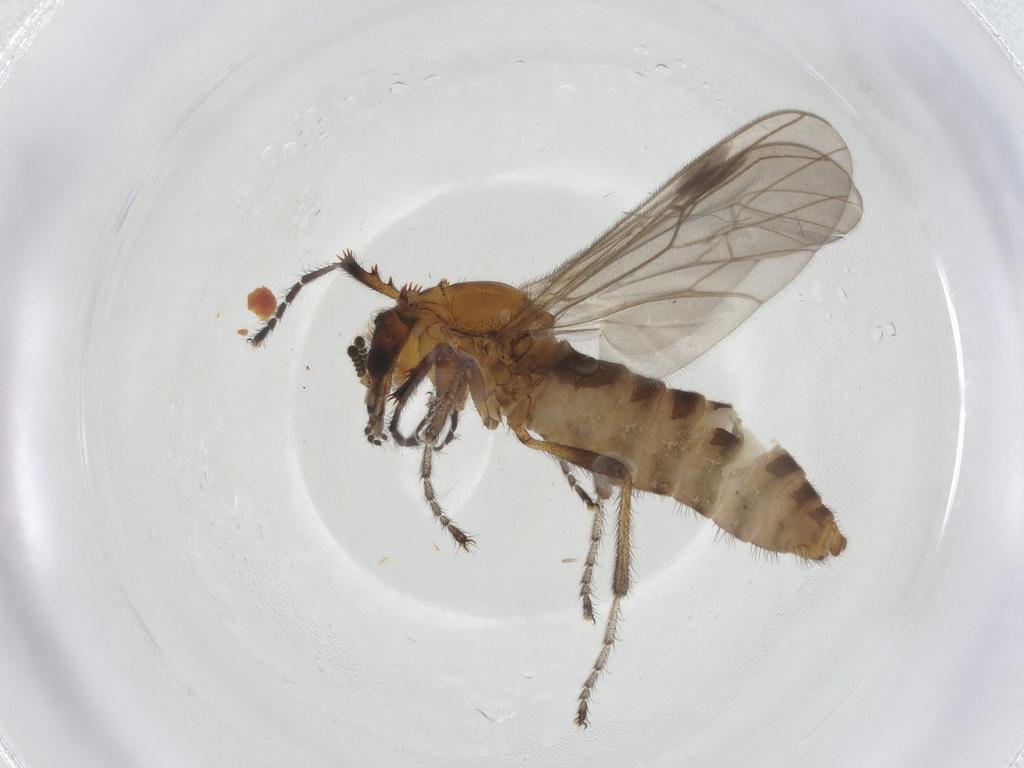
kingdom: Animalia
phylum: Arthropoda
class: Insecta
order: Diptera
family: Bibionidae
